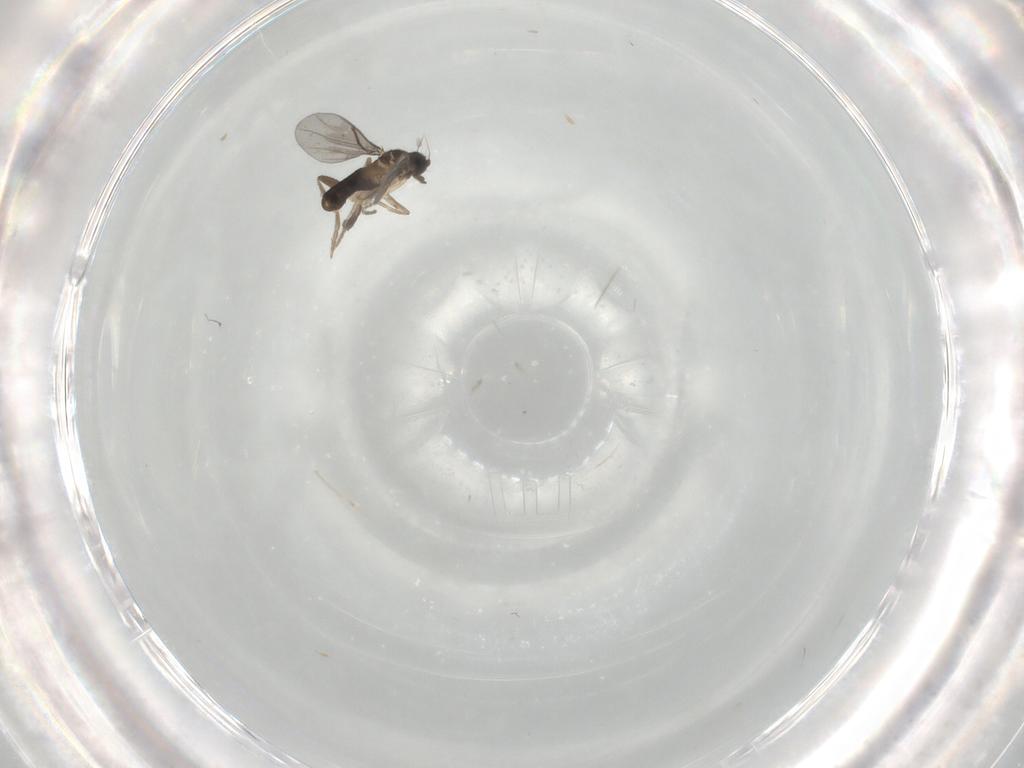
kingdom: Animalia
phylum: Arthropoda
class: Insecta
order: Diptera
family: Phoridae
